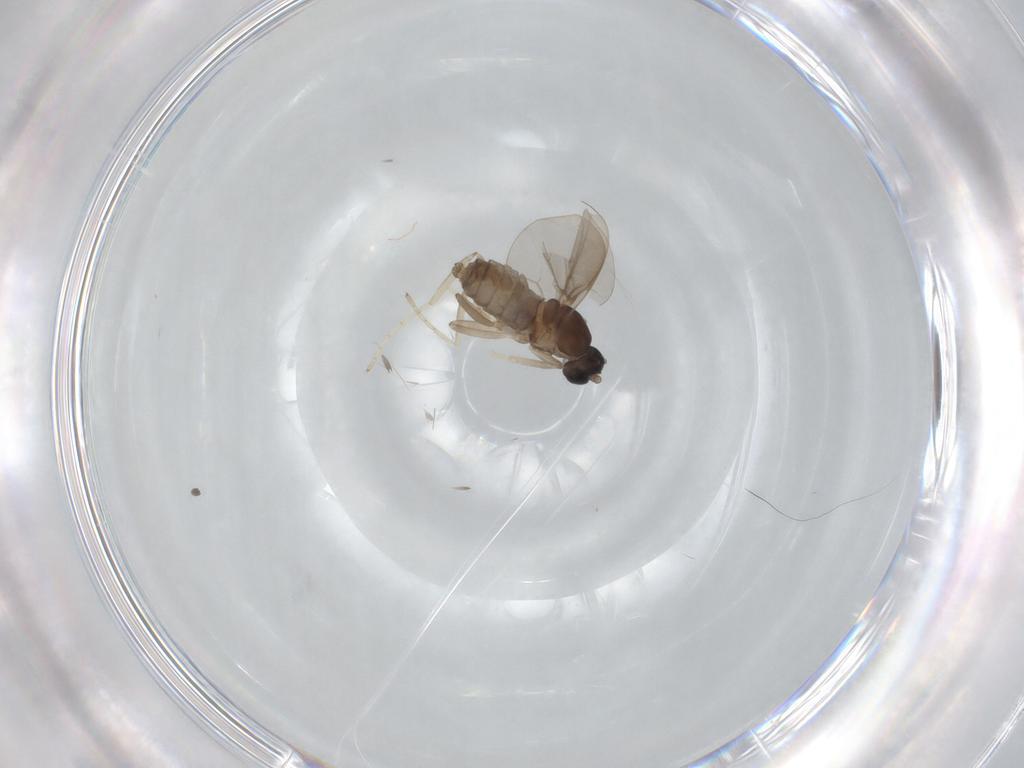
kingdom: Animalia
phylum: Arthropoda
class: Insecta
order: Diptera
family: Cecidomyiidae
